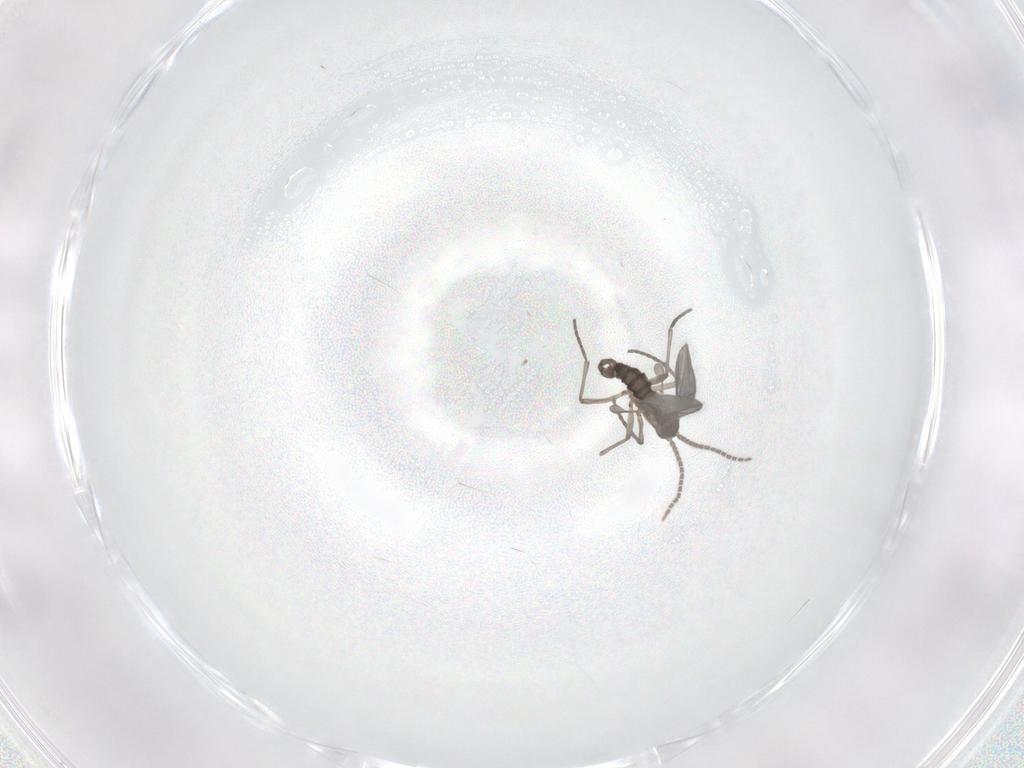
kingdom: Animalia
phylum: Arthropoda
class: Insecta
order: Diptera
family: Sciaridae
